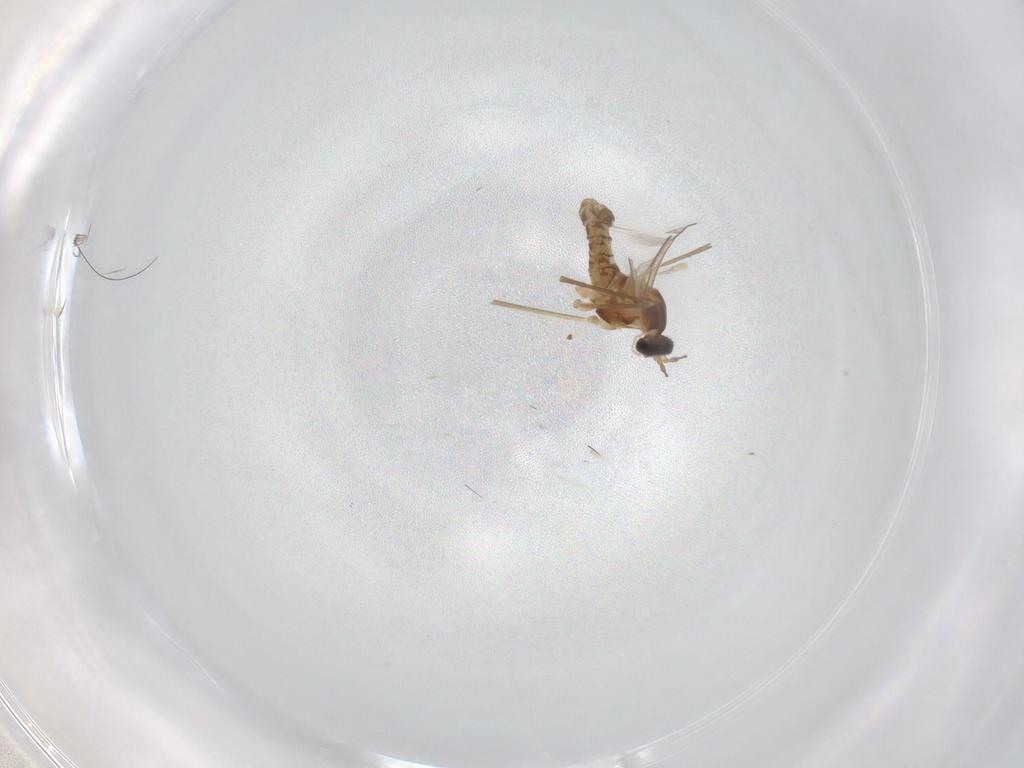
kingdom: Animalia
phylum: Arthropoda
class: Insecta
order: Diptera
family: Cecidomyiidae
